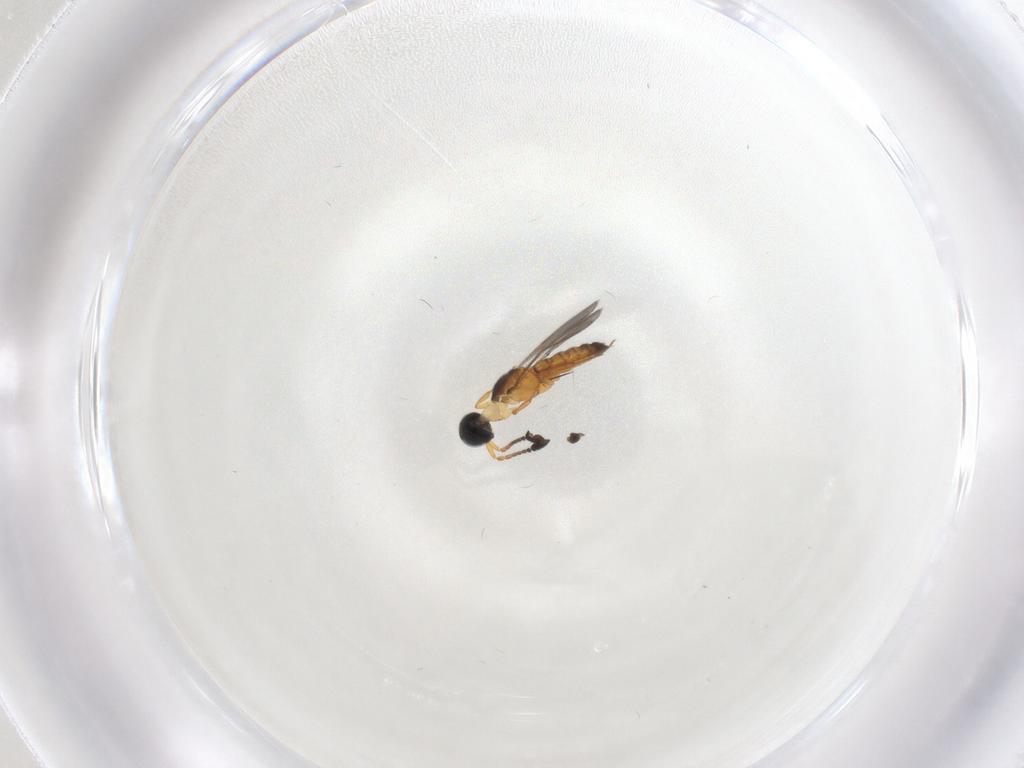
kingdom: Animalia
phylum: Arthropoda
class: Insecta
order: Hymenoptera
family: Scelionidae
